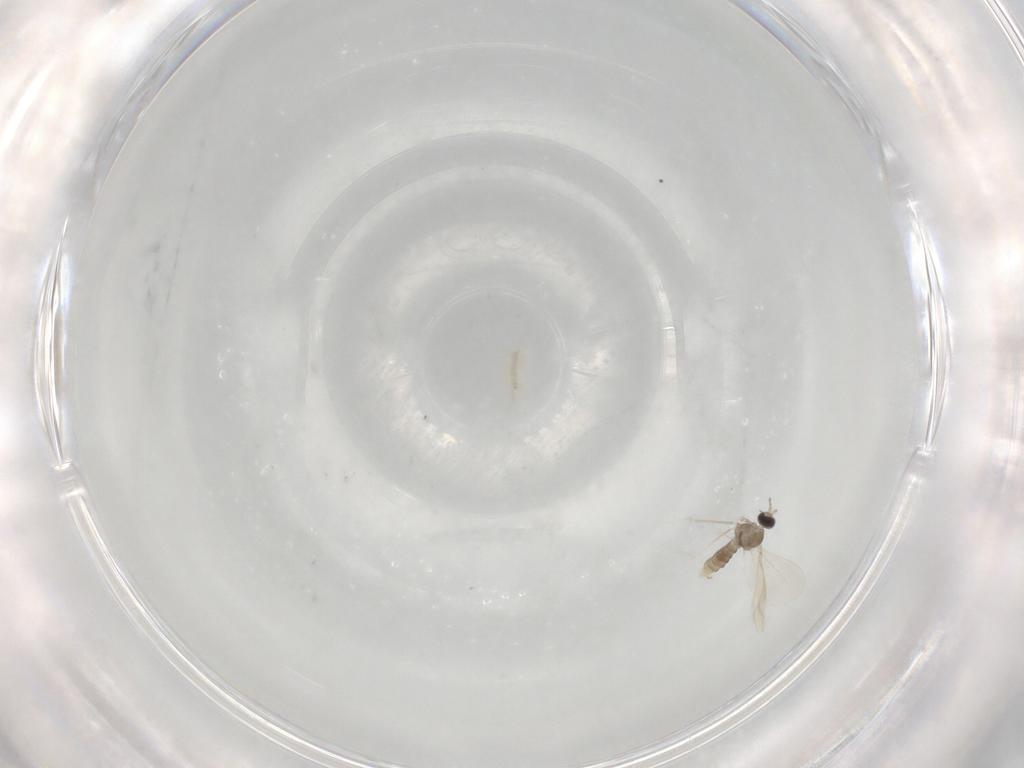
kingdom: Animalia
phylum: Arthropoda
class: Insecta
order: Diptera
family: Cecidomyiidae
